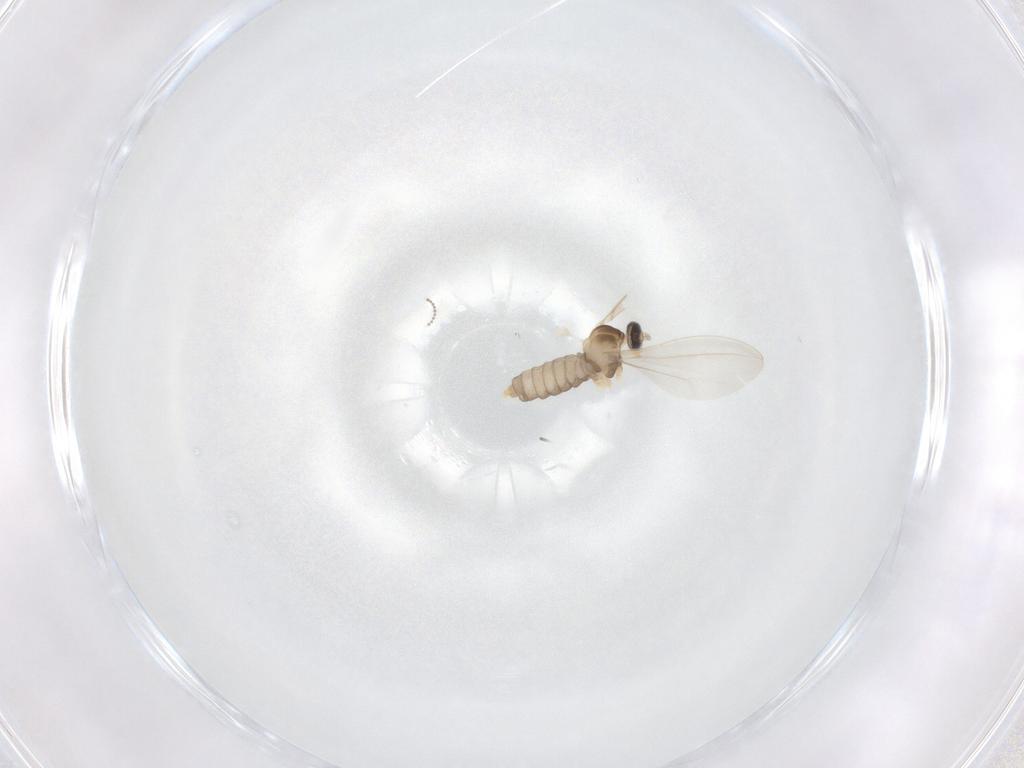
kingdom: Animalia
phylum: Arthropoda
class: Insecta
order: Diptera
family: Cecidomyiidae
